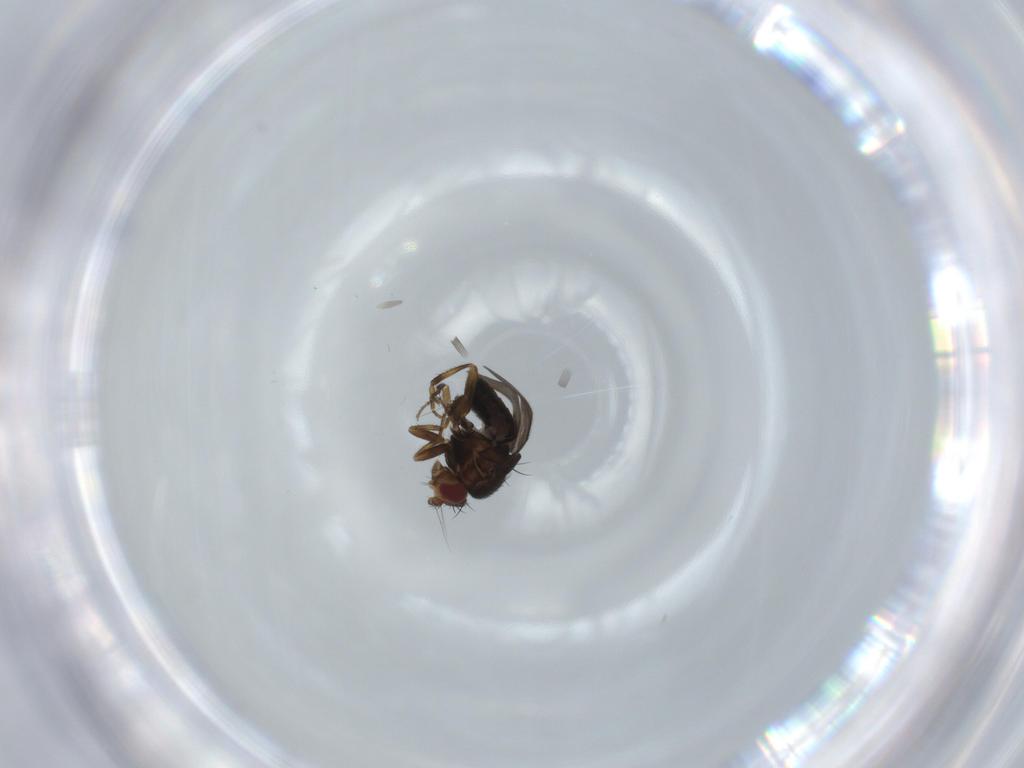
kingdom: Animalia
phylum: Arthropoda
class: Insecta
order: Diptera
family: Sphaeroceridae
